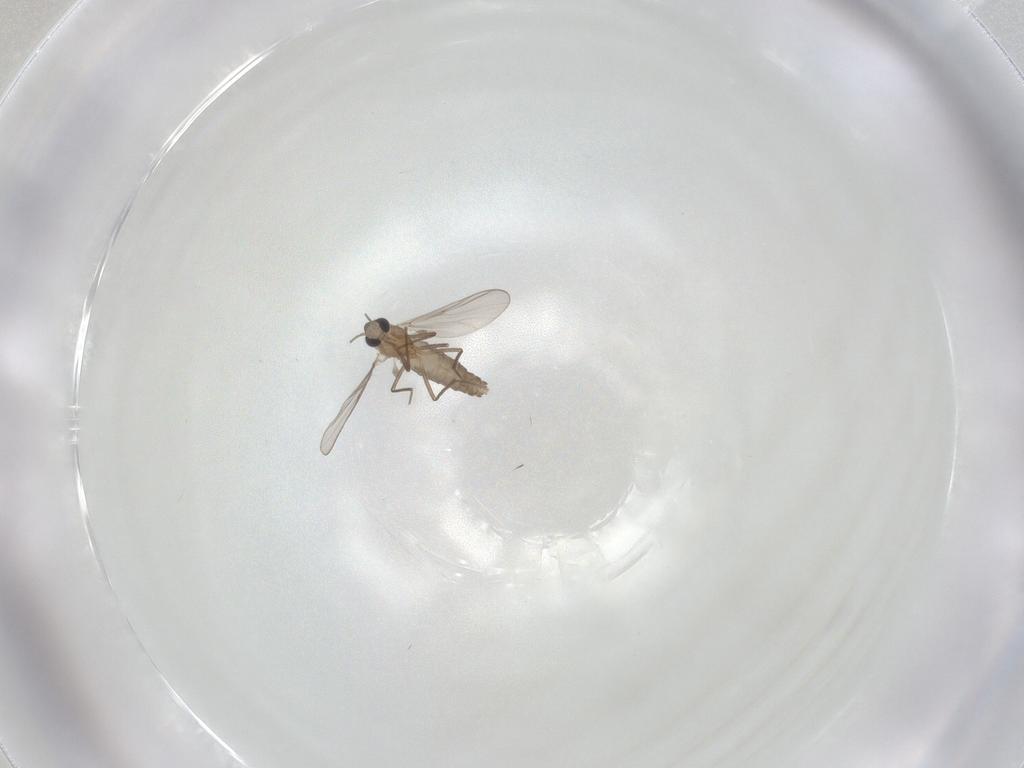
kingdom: Animalia
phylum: Arthropoda
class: Insecta
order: Diptera
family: Chironomidae
